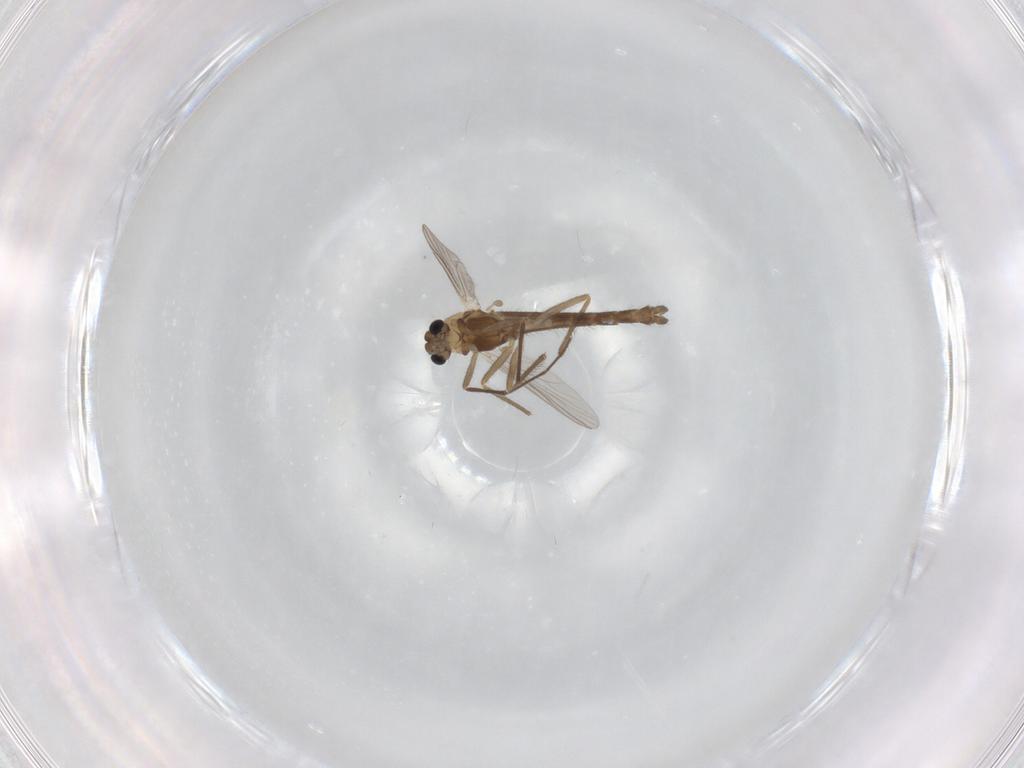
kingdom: Animalia
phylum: Arthropoda
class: Insecta
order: Diptera
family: Chironomidae
